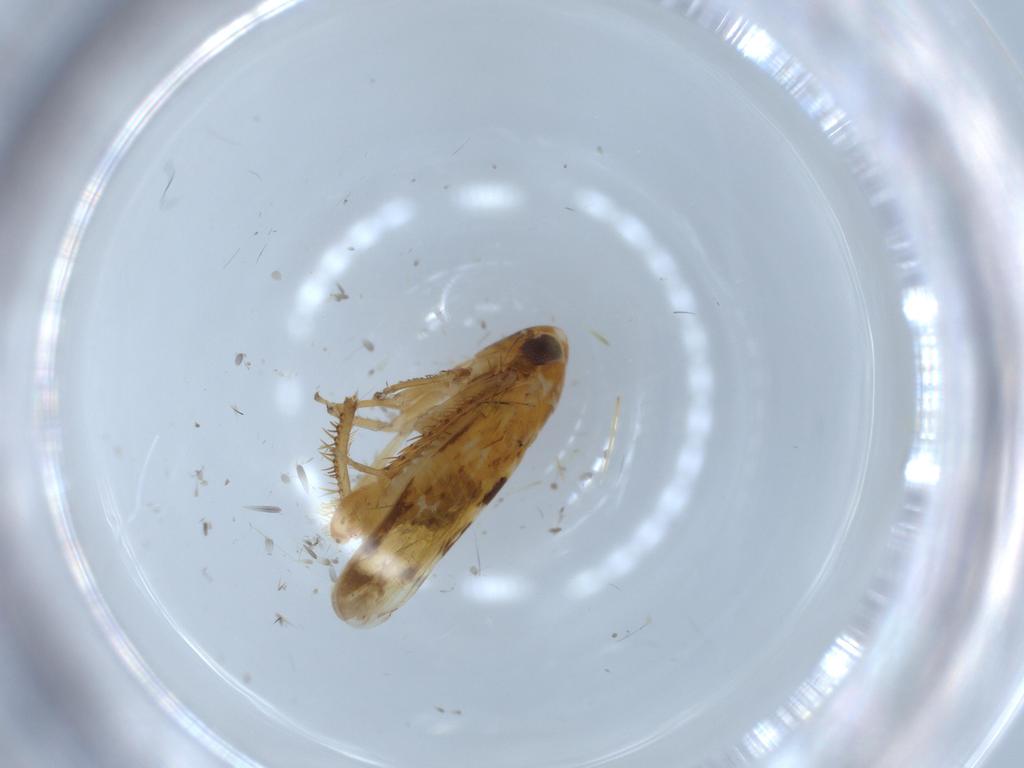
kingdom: Animalia
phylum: Arthropoda
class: Insecta
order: Hemiptera
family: Cicadellidae
